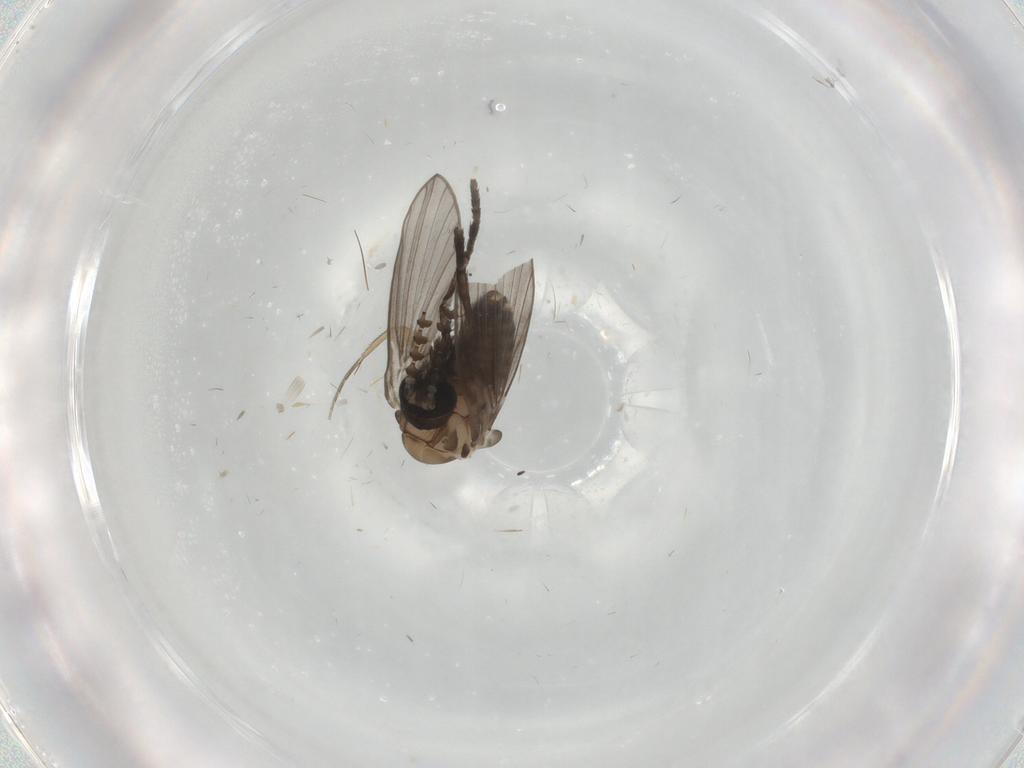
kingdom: Animalia
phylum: Arthropoda
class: Insecta
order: Diptera
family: Psychodidae
